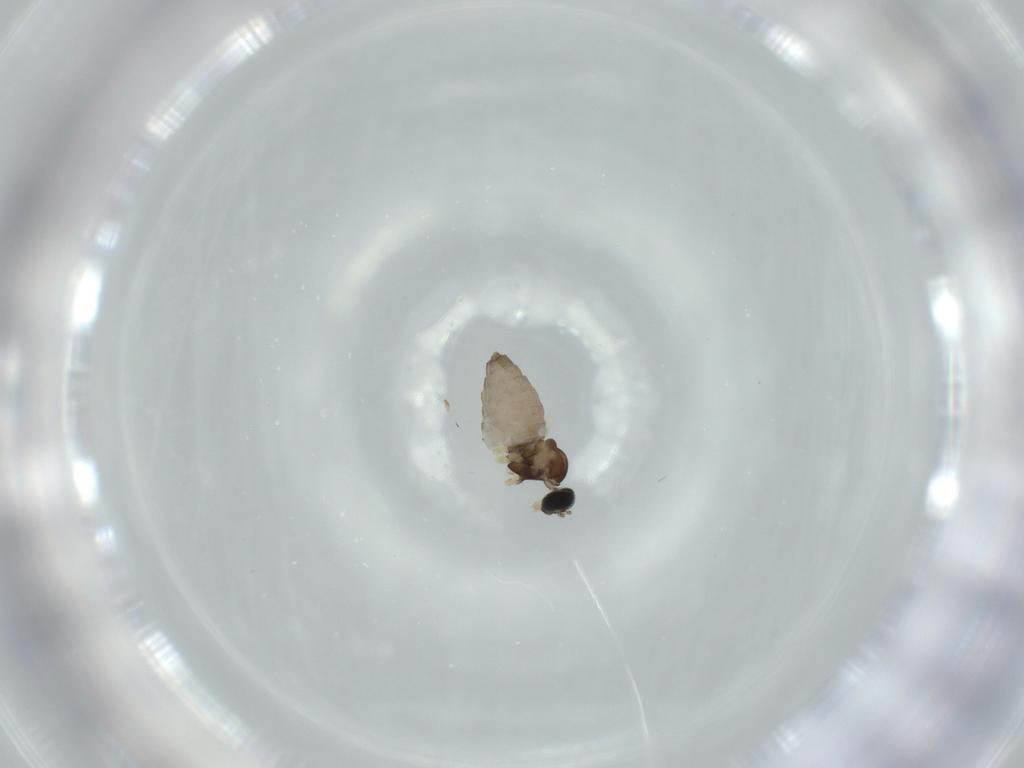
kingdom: Animalia
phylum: Arthropoda
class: Insecta
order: Diptera
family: Cecidomyiidae
